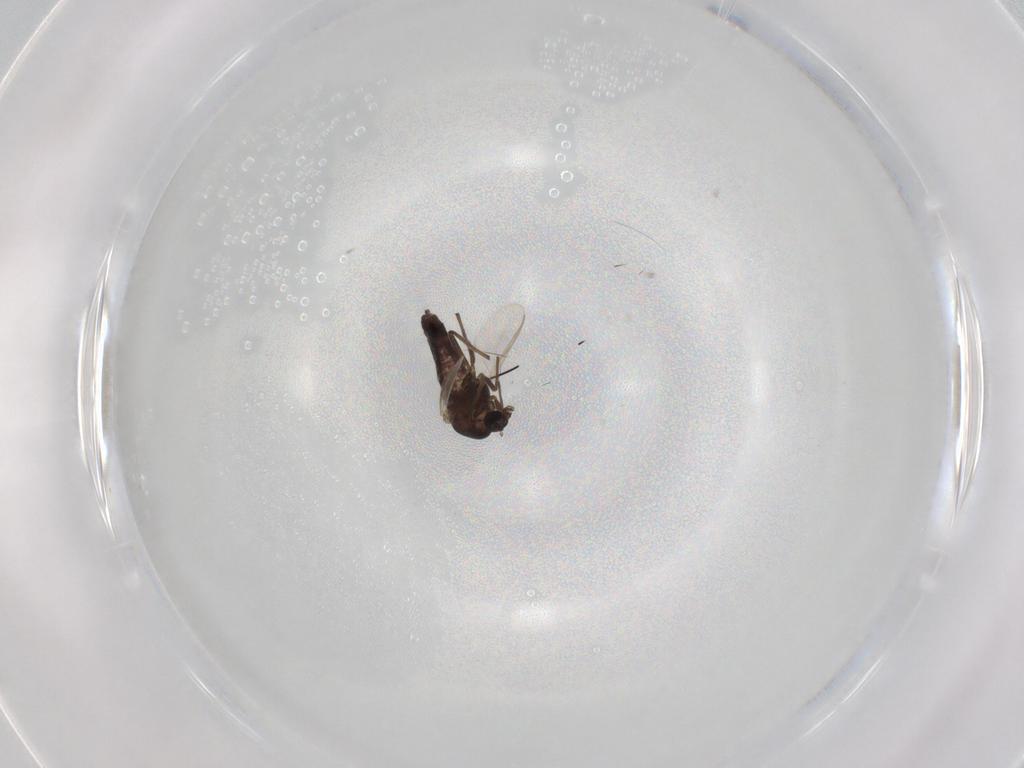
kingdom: Animalia
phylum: Arthropoda
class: Insecta
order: Diptera
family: Chironomidae
